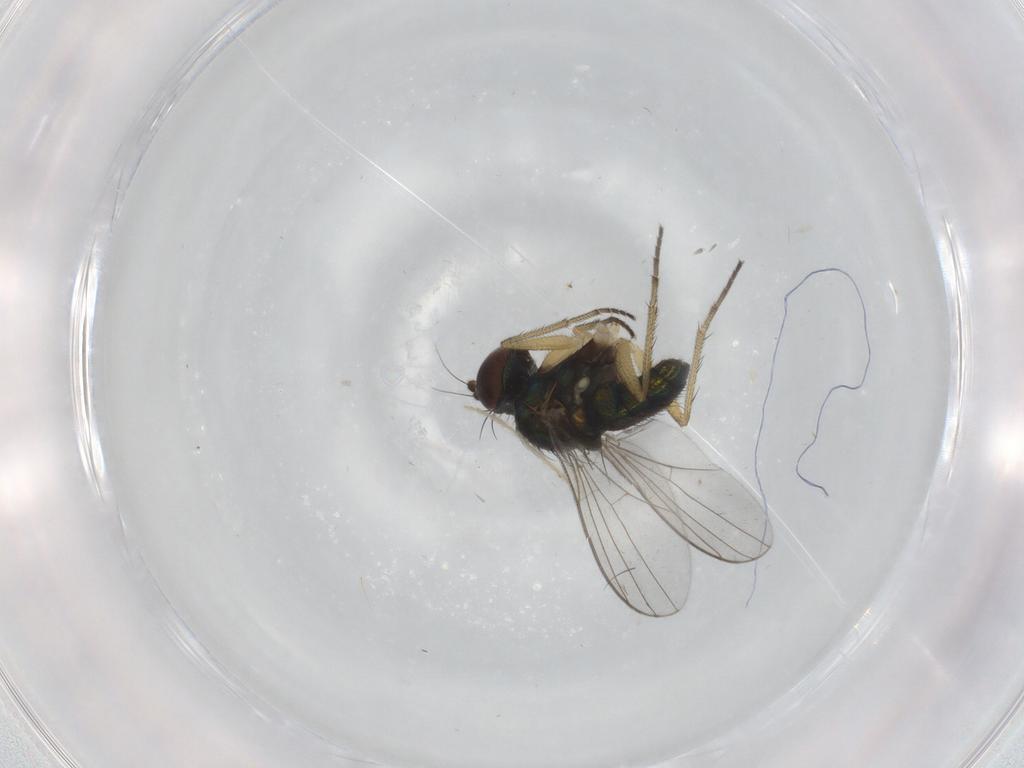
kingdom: Animalia
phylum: Arthropoda
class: Insecta
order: Diptera
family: Chironomidae
